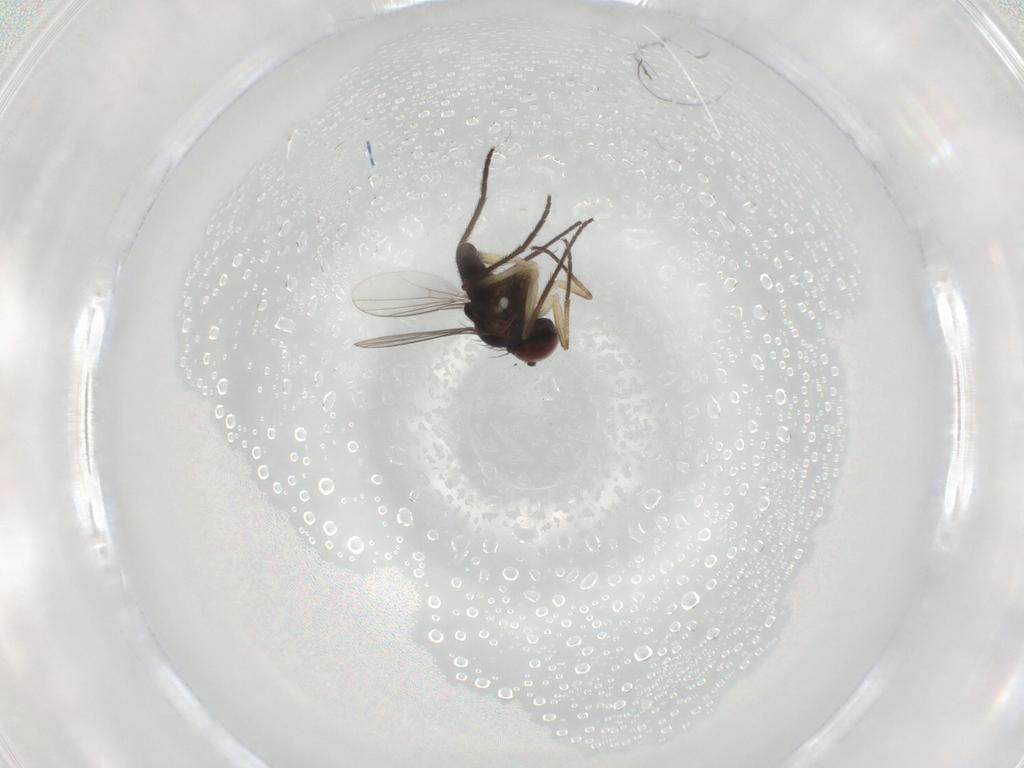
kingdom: Animalia
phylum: Arthropoda
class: Insecta
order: Diptera
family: Dolichopodidae
